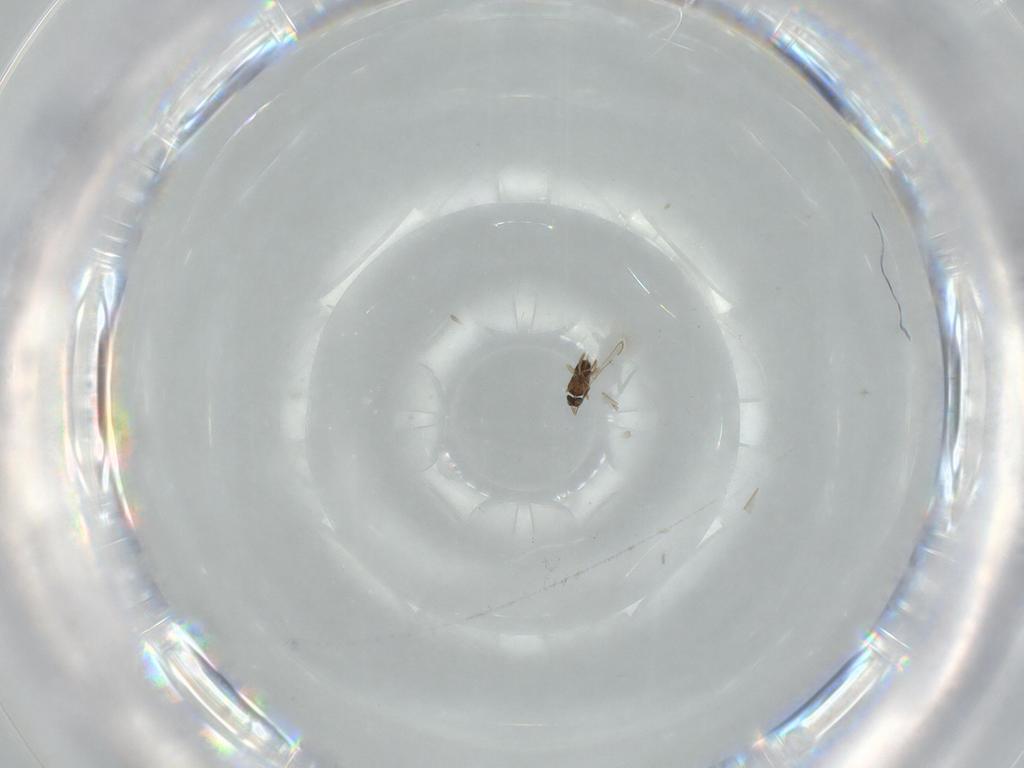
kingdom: Animalia
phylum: Arthropoda
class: Insecta
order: Hymenoptera
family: Braconidae
